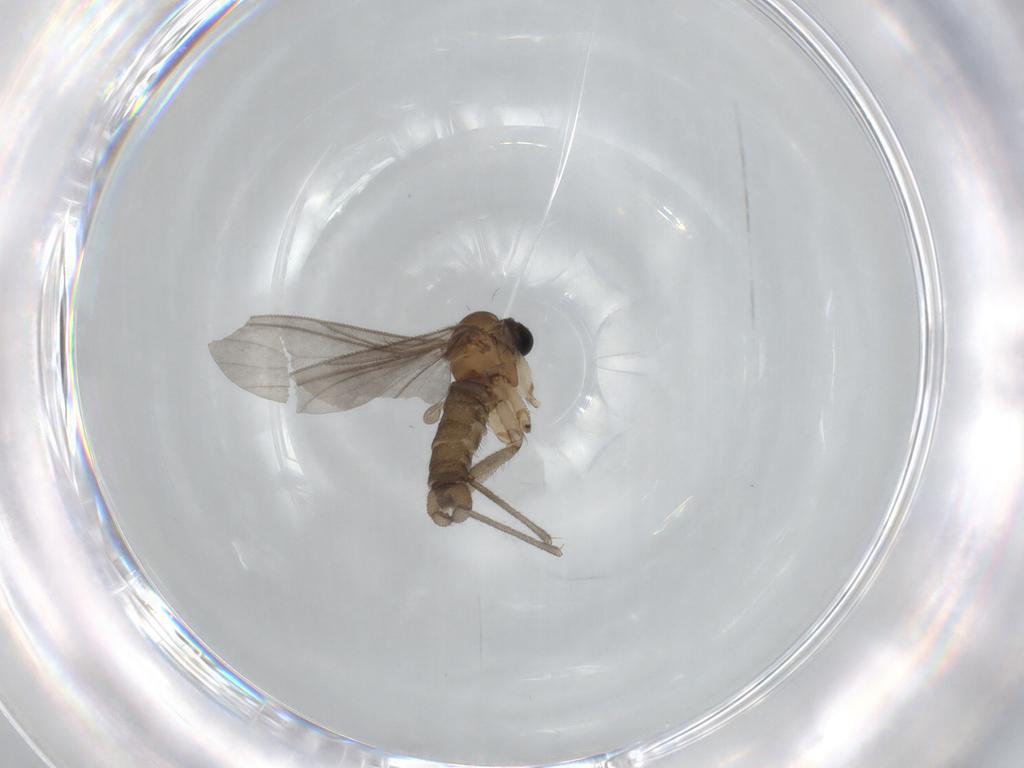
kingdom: Animalia
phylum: Arthropoda
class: Insecta
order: Diptera
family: Sciaridae
